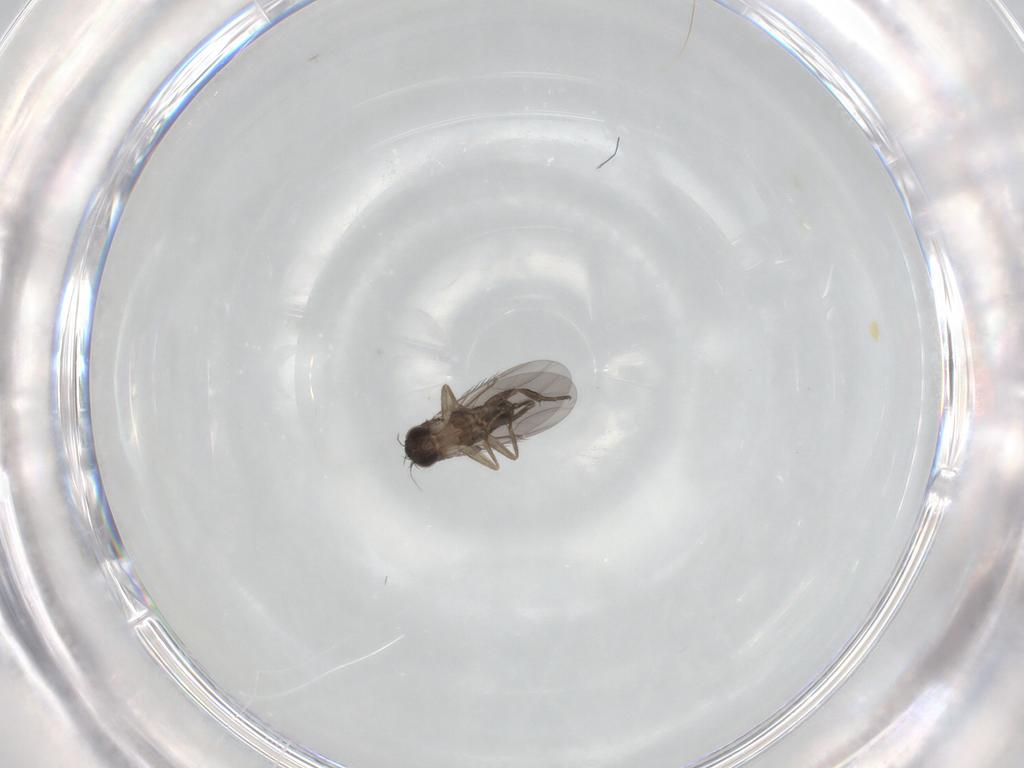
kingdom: Animalia
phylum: Arthropoda
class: Insecta
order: Diptera
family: Phoridae
